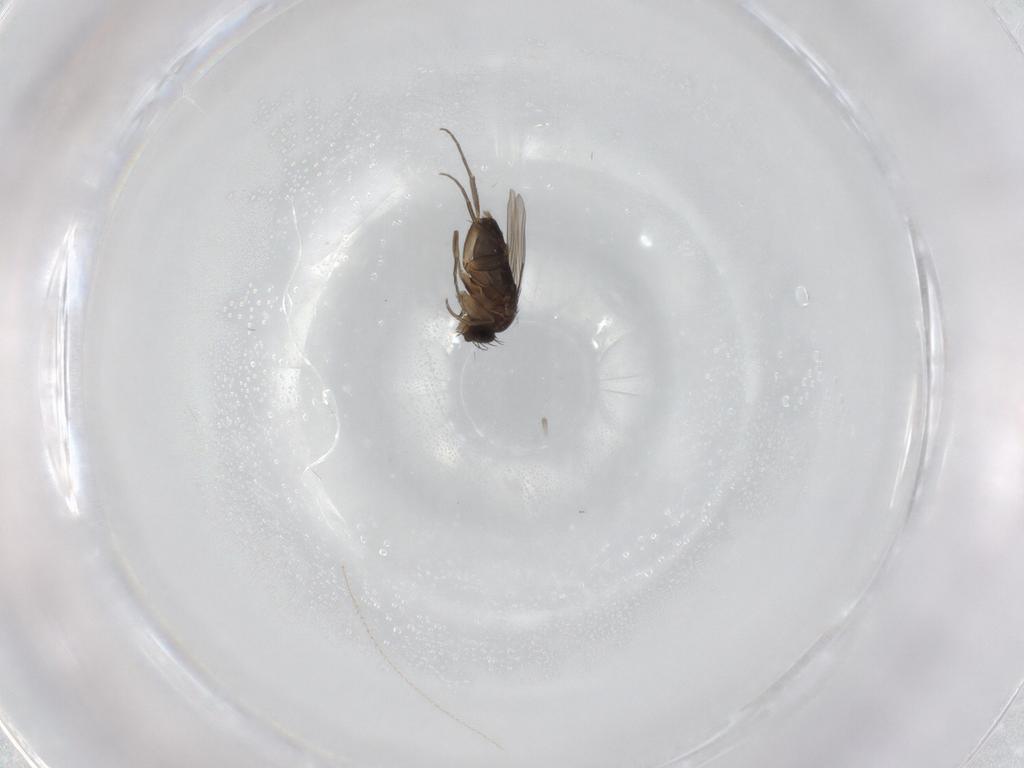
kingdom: Animalia
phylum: Arthropoda
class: Insecta
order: Diptera
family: Phoridae
